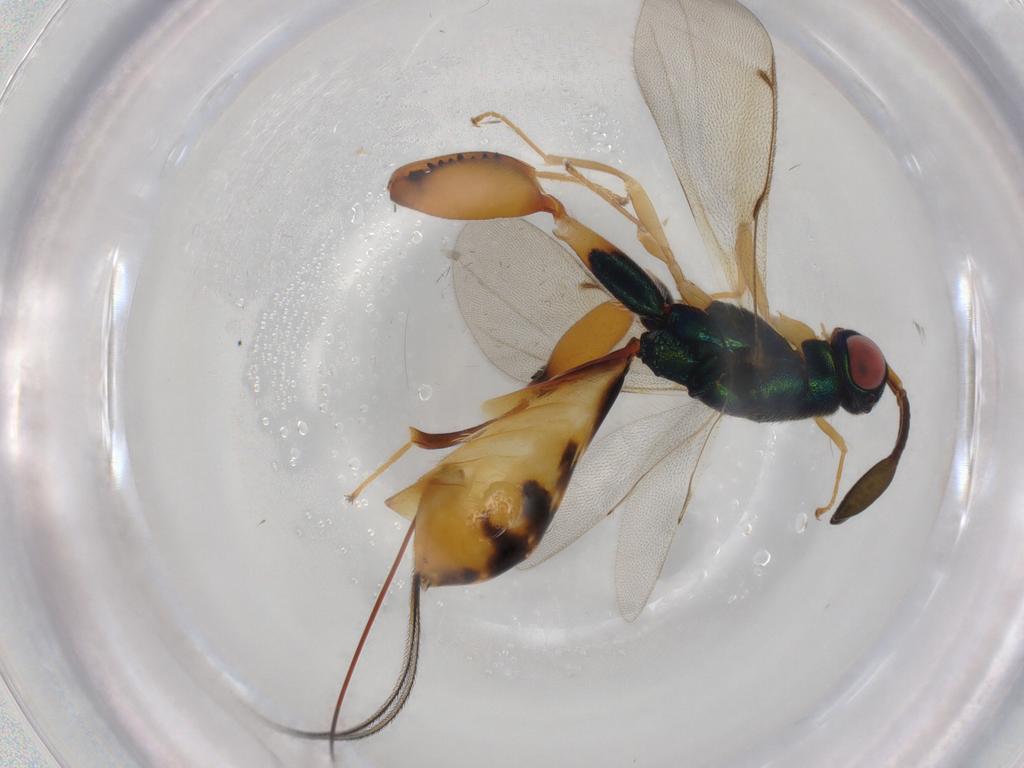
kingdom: Animalia
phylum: Arthropoda
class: Insecta
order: Hymenoptera
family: Torymidae
